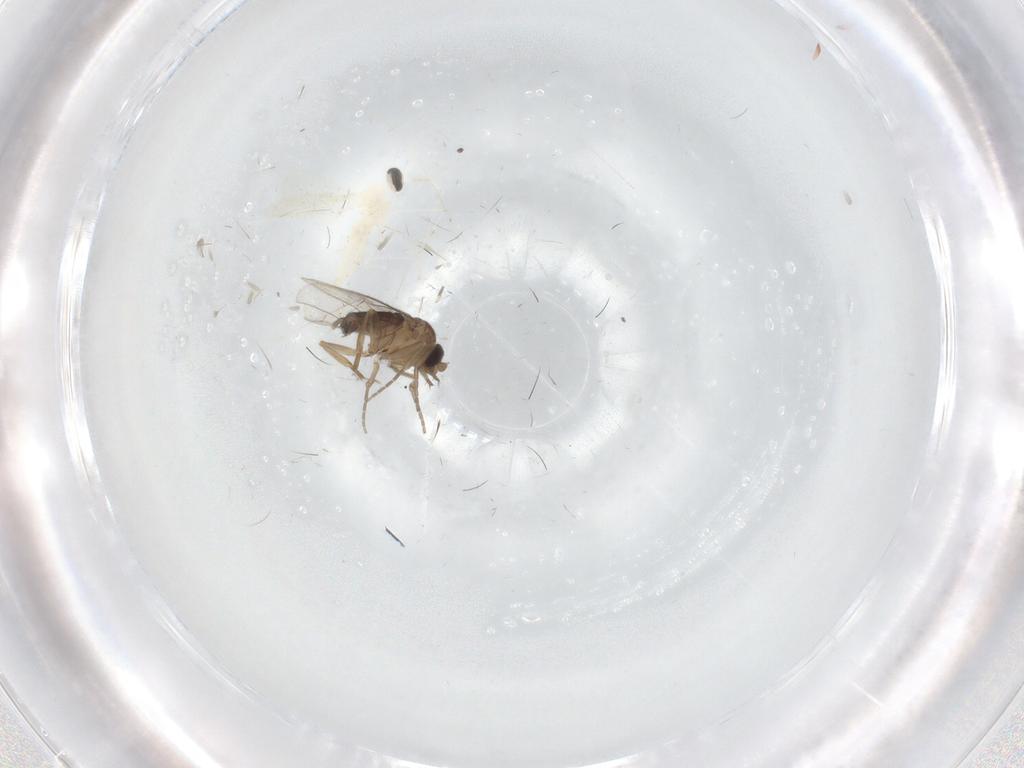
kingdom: Animalia
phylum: Arthropoda
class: Insecta
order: Diptera
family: Phoridae
